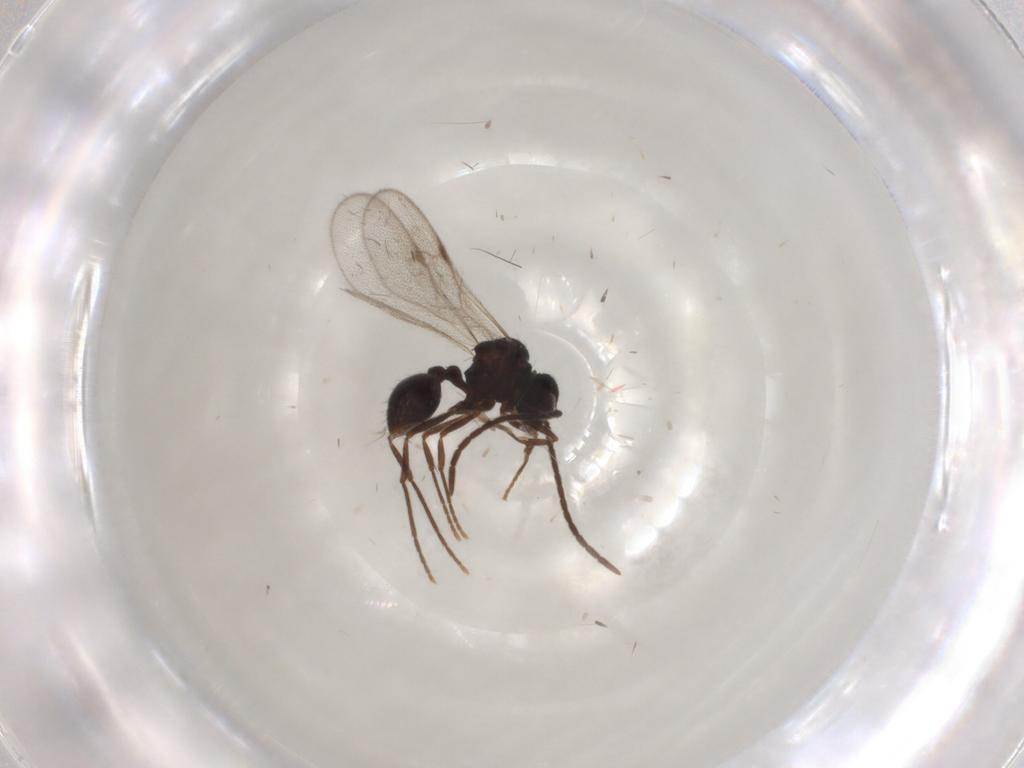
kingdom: Animalia
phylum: Arthropoda
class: Insecta
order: Hymenoptera
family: Formicidae
